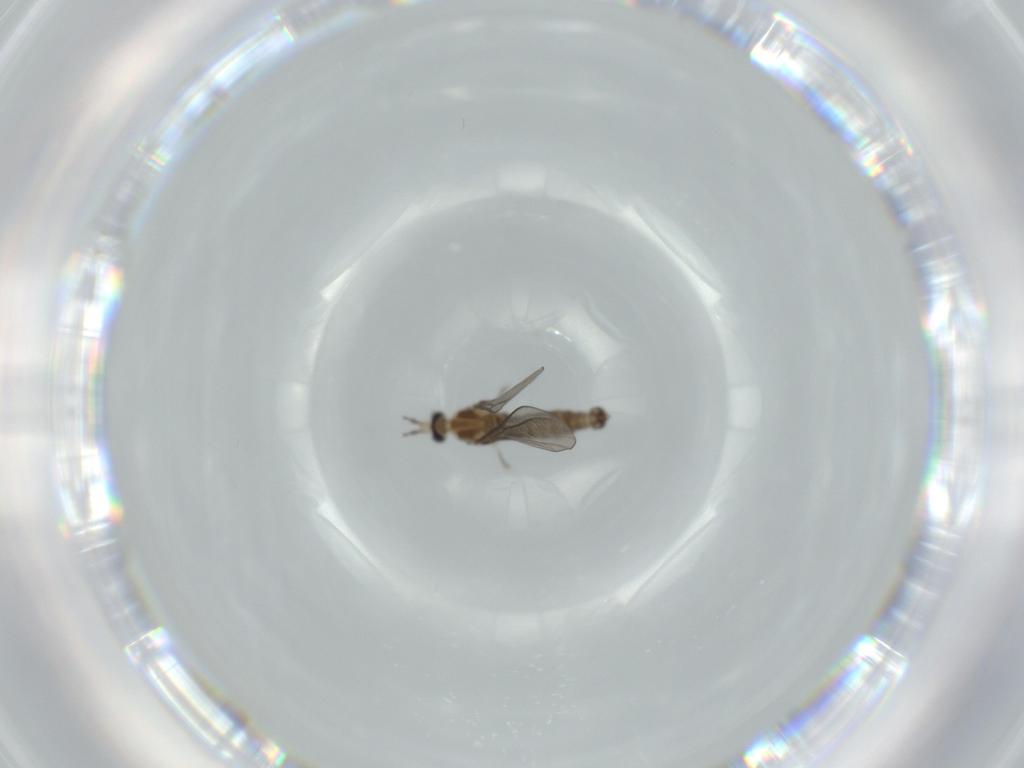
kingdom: Animalia
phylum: Arthropoda
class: Insecta
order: Diptera
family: Cecidomyiidae
